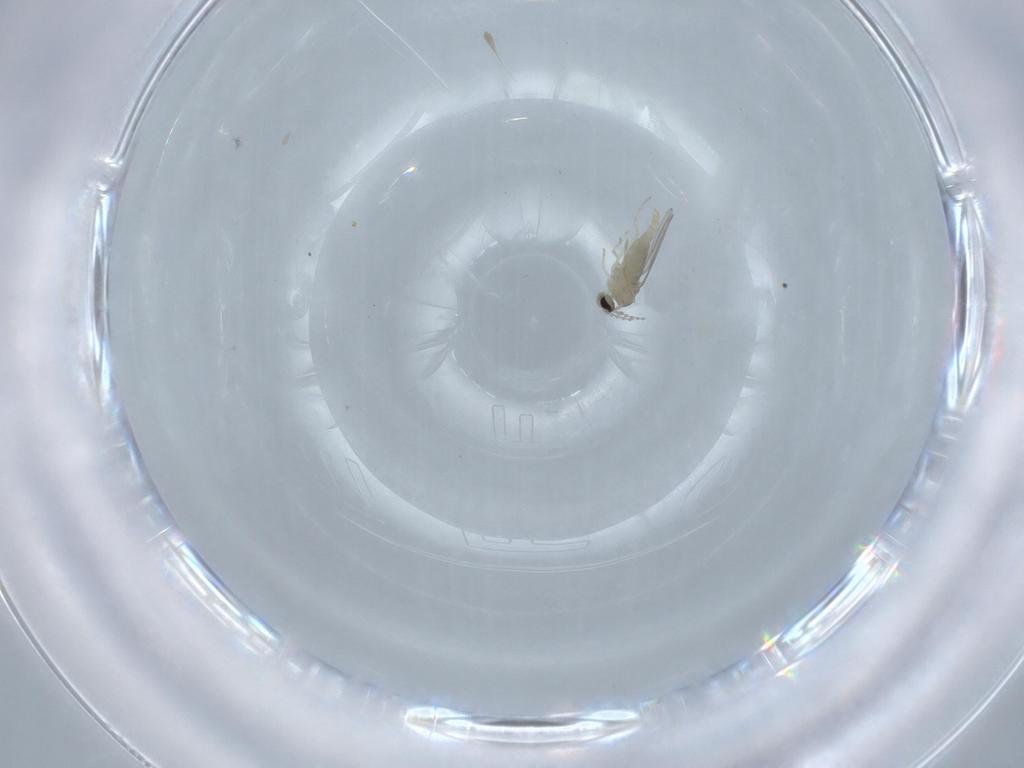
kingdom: Animalia
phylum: Arthropoda
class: Insecta
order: Diptera
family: Cecidomyiidae
